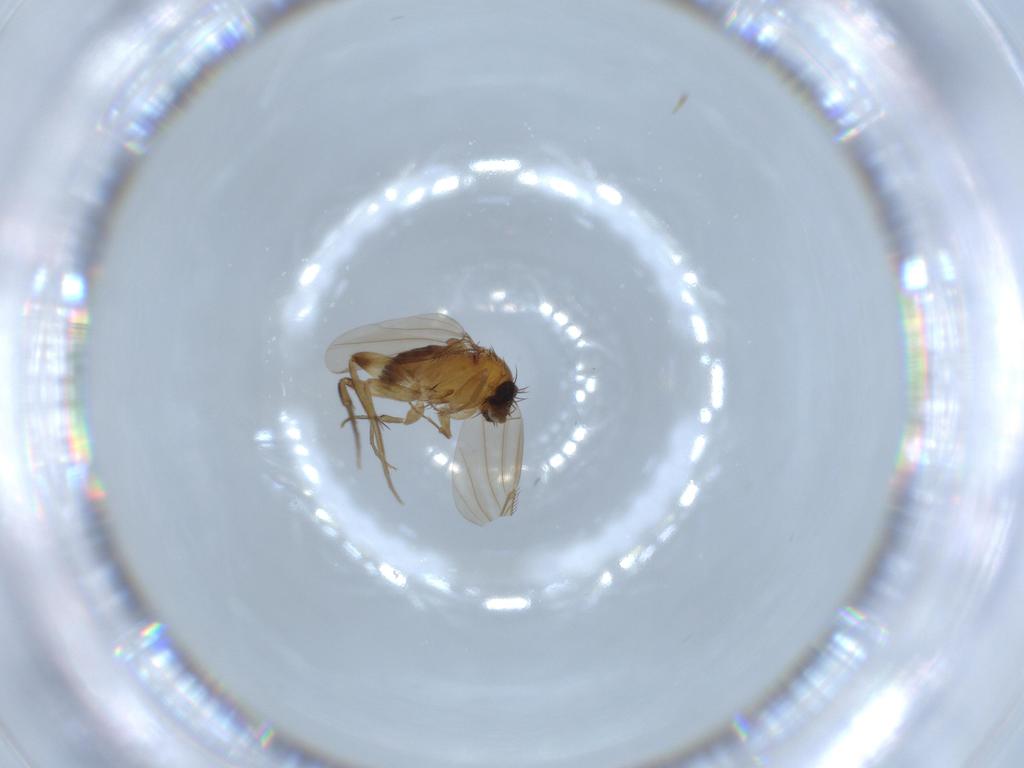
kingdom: Animalia
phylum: Arthropoda
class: Insecta
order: Diptera
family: Phoridae
